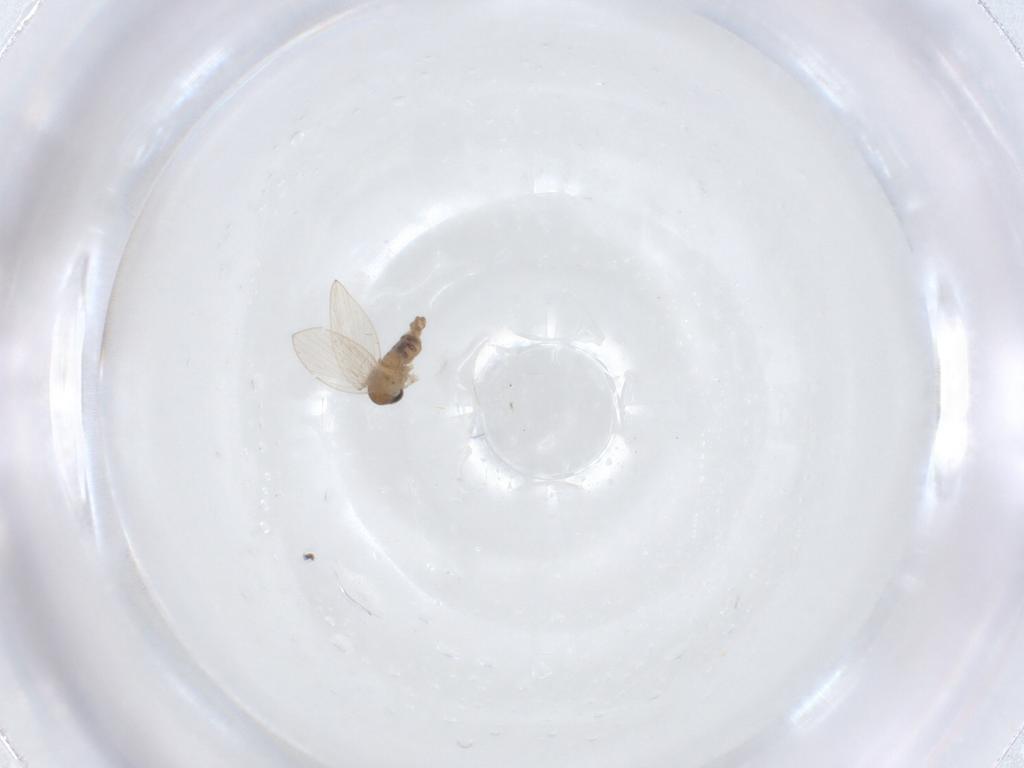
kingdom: Animalia
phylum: Arthropoda
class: Insecta
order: Diptera
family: Psychodidae
